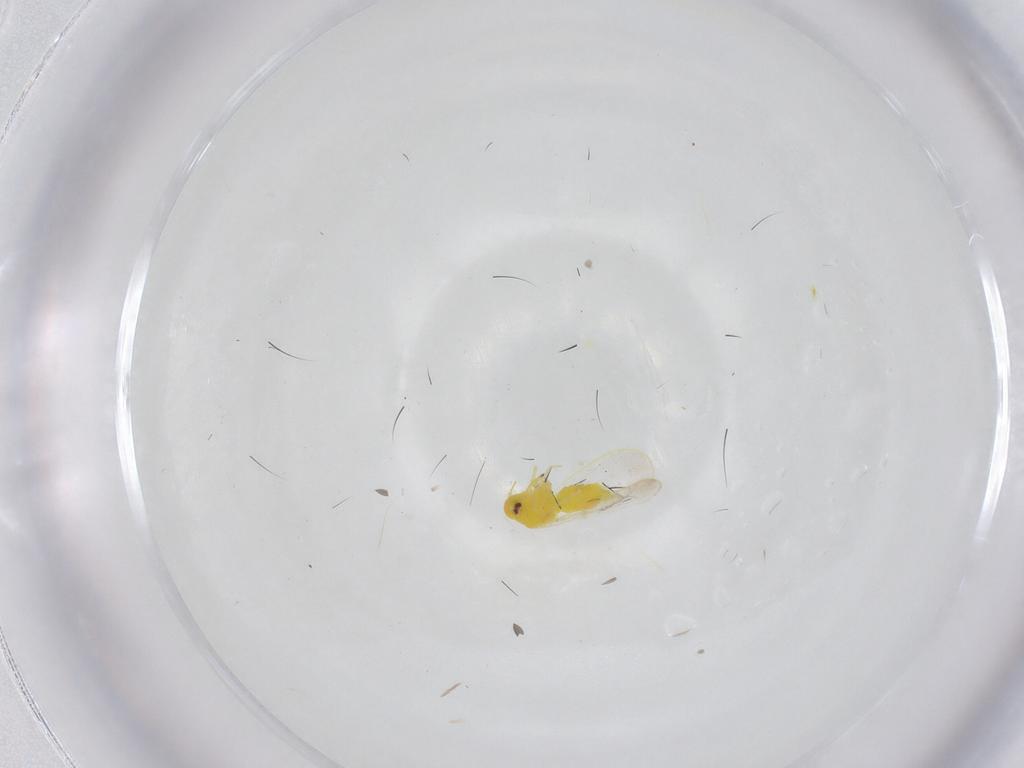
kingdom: Animalia
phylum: Arthropoda
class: Insecta
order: Hemiptera
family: Aleyrodidae
